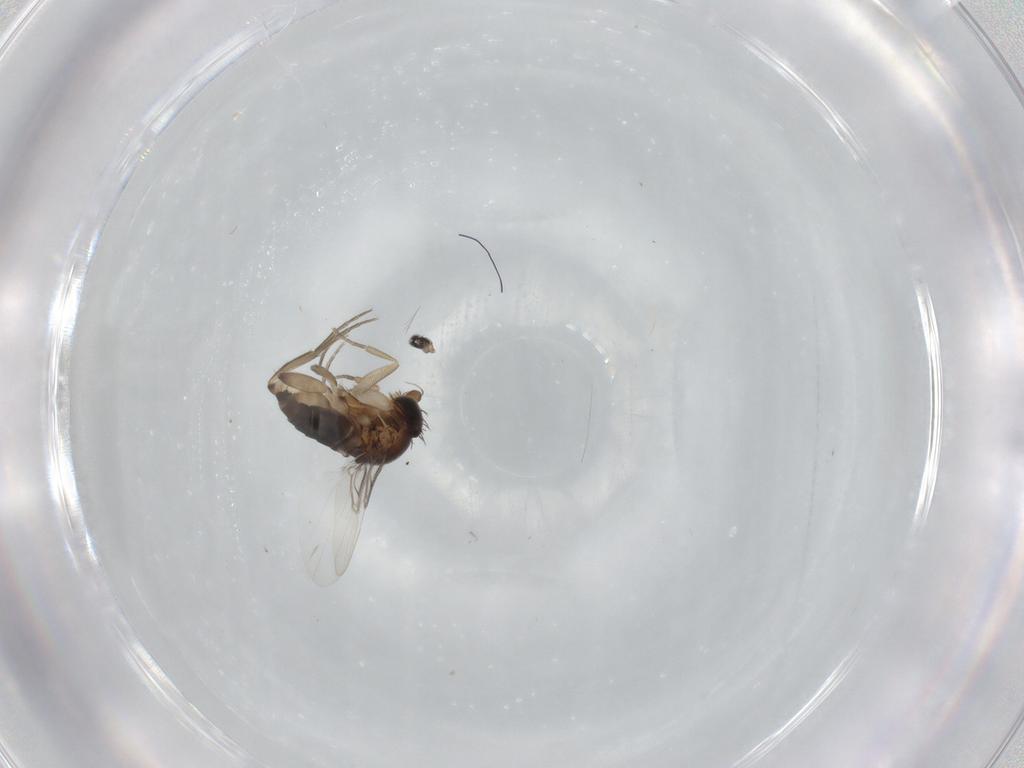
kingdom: Animalia
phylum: Arthropoda
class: Insecta
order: Diptera
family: Phoridae
